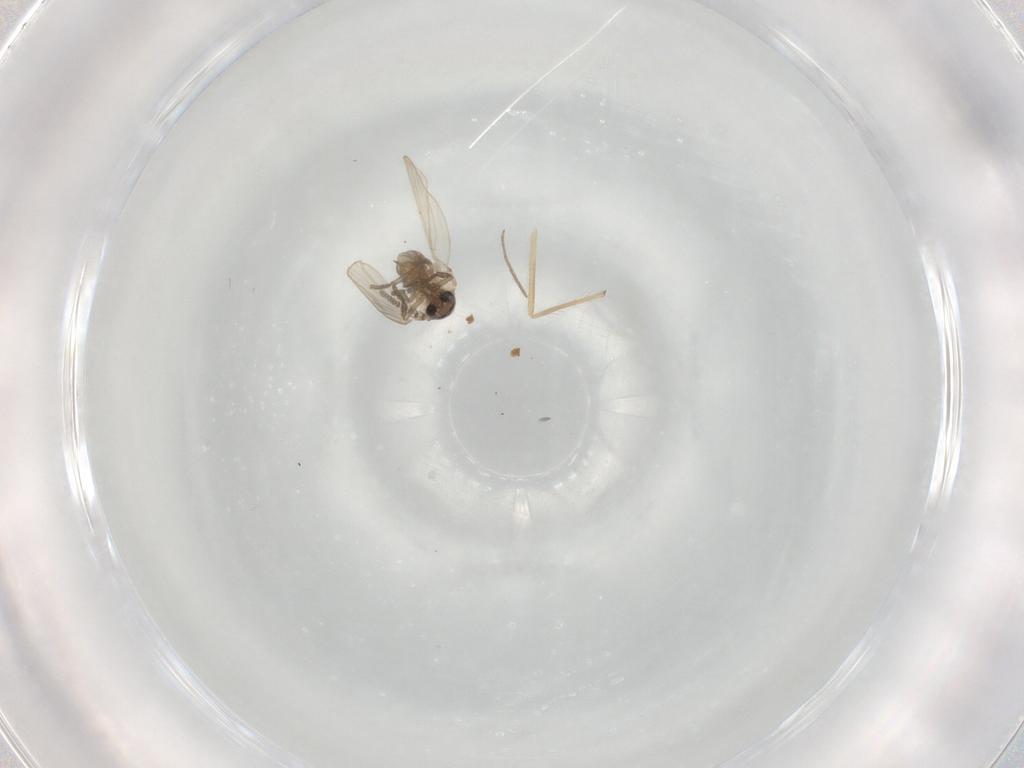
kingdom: Animalia
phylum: Arthropoda
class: Insecta
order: Diptera
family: Psychodidae
